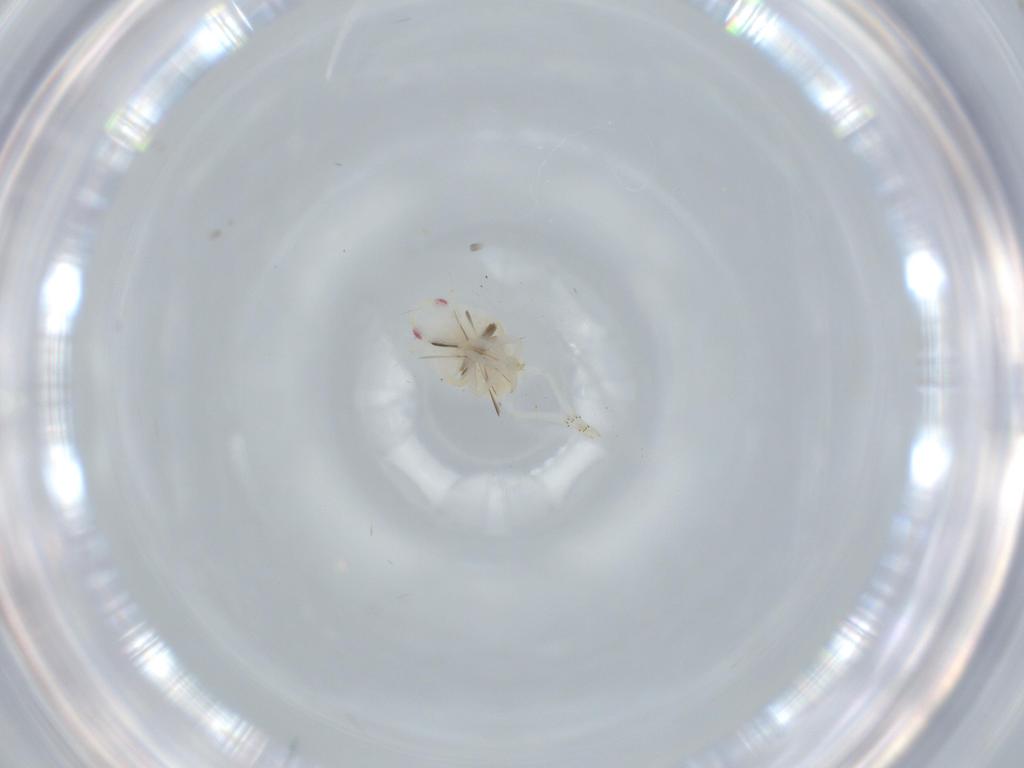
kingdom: Animalia
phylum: Arthropoda
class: Insecta
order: Hemiptera
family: Flatidae
